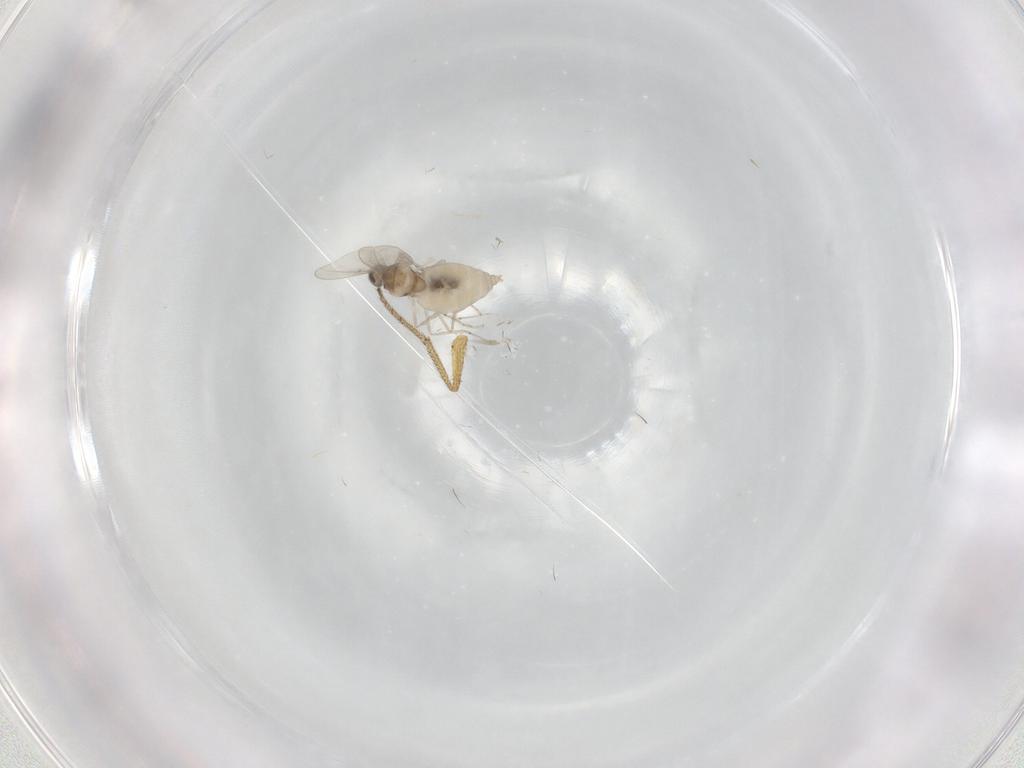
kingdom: Animalia
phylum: Arthropoda
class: Insecta
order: Diptera
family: Cecidomyiidae
